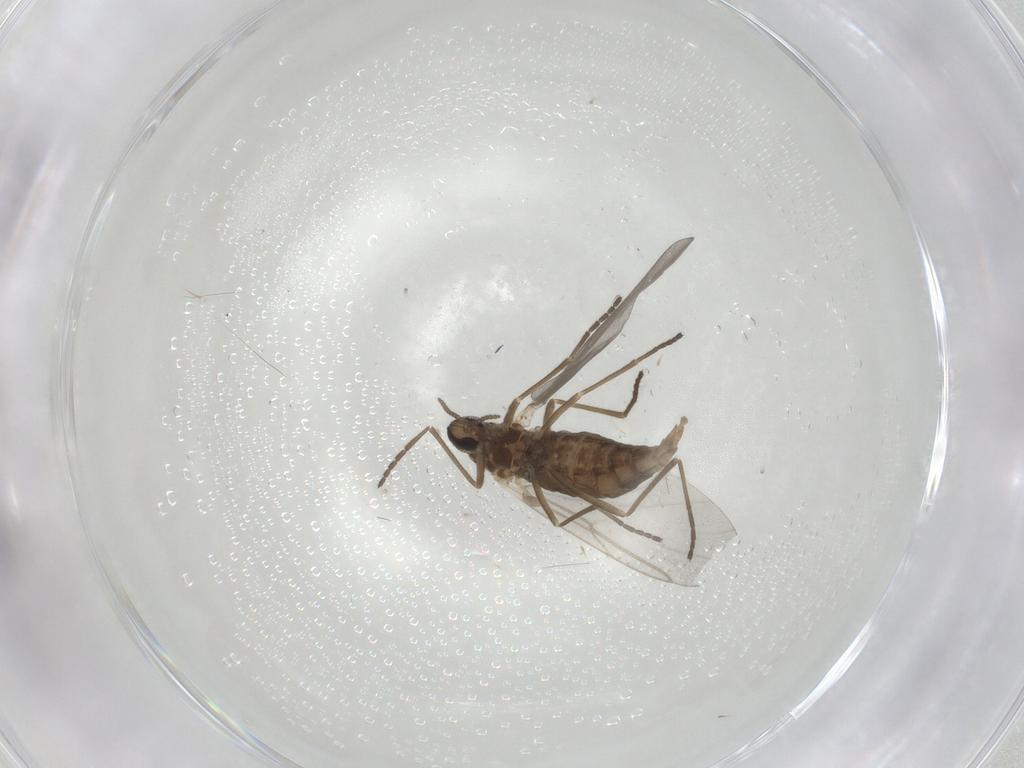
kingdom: Animalia
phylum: Arthropoda
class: Insecta
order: Diptera
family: Cecidomyiidae
